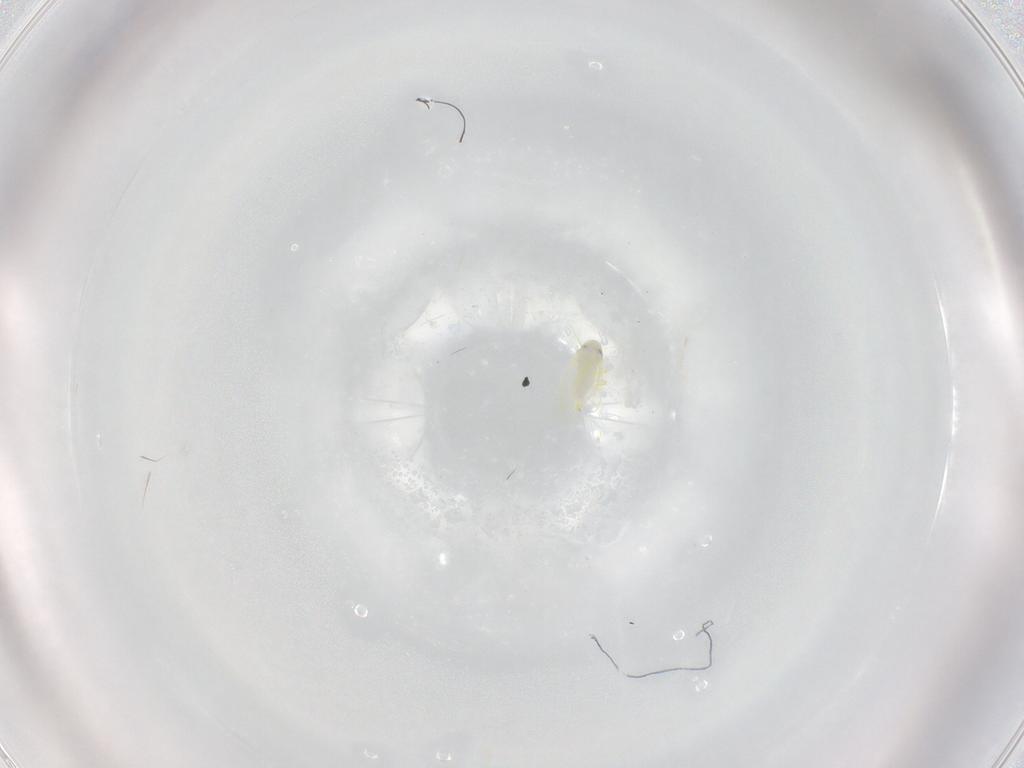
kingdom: Animalia
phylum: Arthropoda
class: Insecta
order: Hemiptera
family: Aleyrodidae
